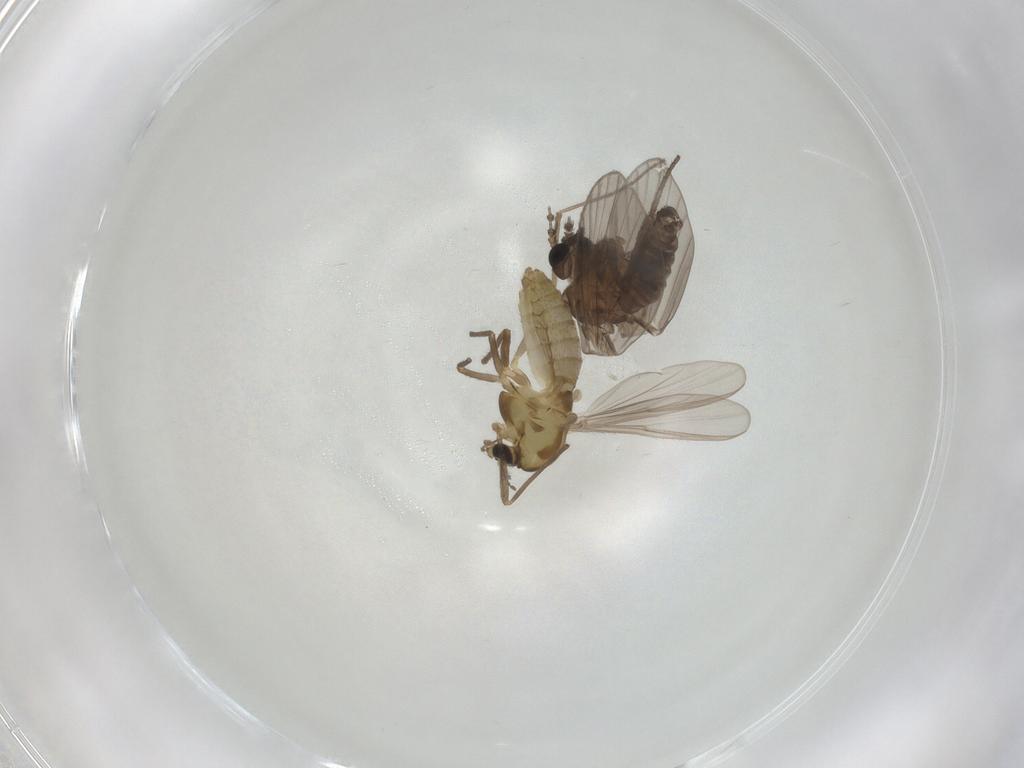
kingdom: Animalia
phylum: Arthropoda
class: Insecta
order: Diptera
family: Psychodidae
